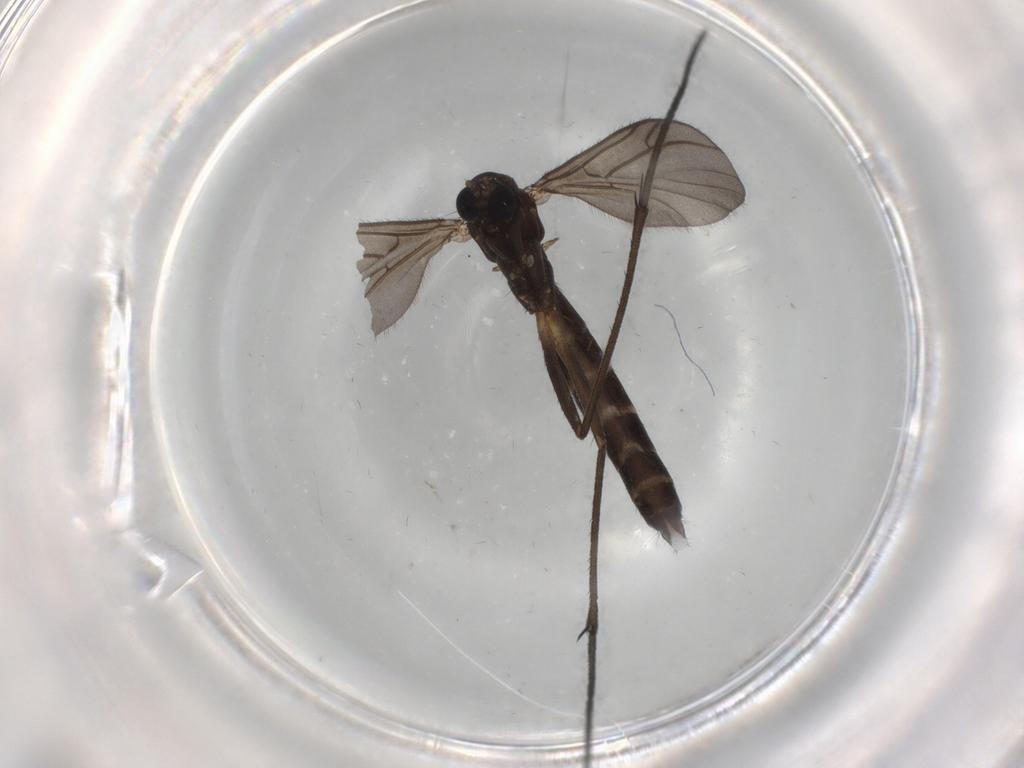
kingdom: Animalia
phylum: Arthropoda
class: Insecta
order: Diptera
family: Ditomyiidae
